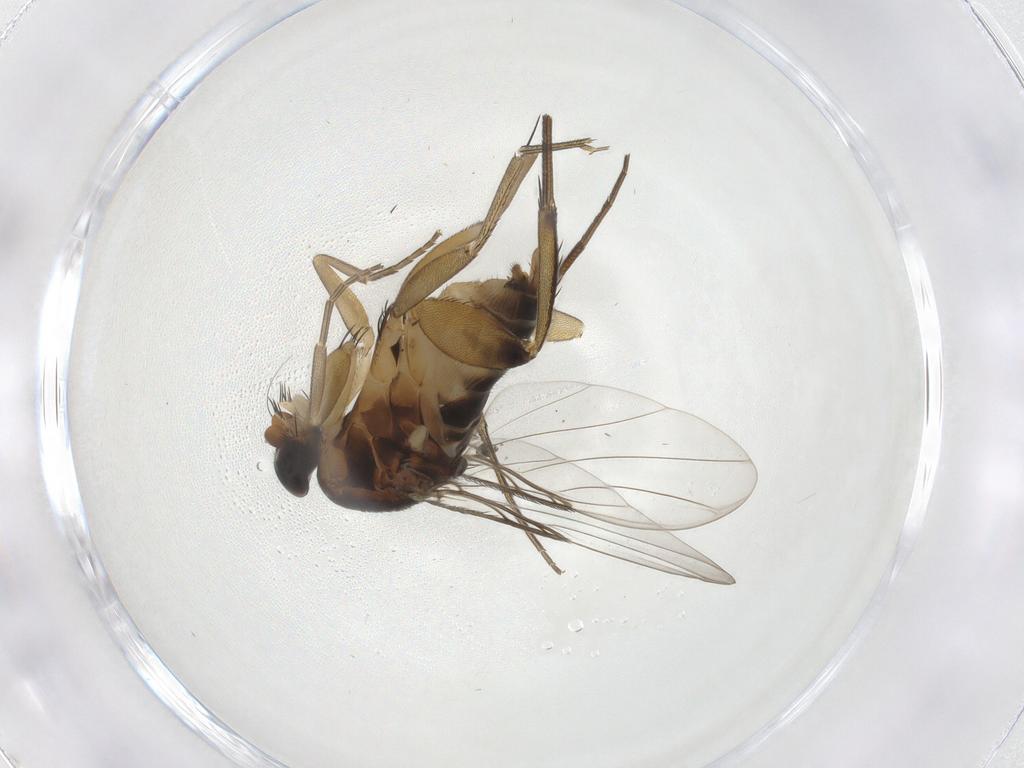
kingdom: Animalia
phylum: Arthropoda
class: Insecta
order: Diptera
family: Phoridae
